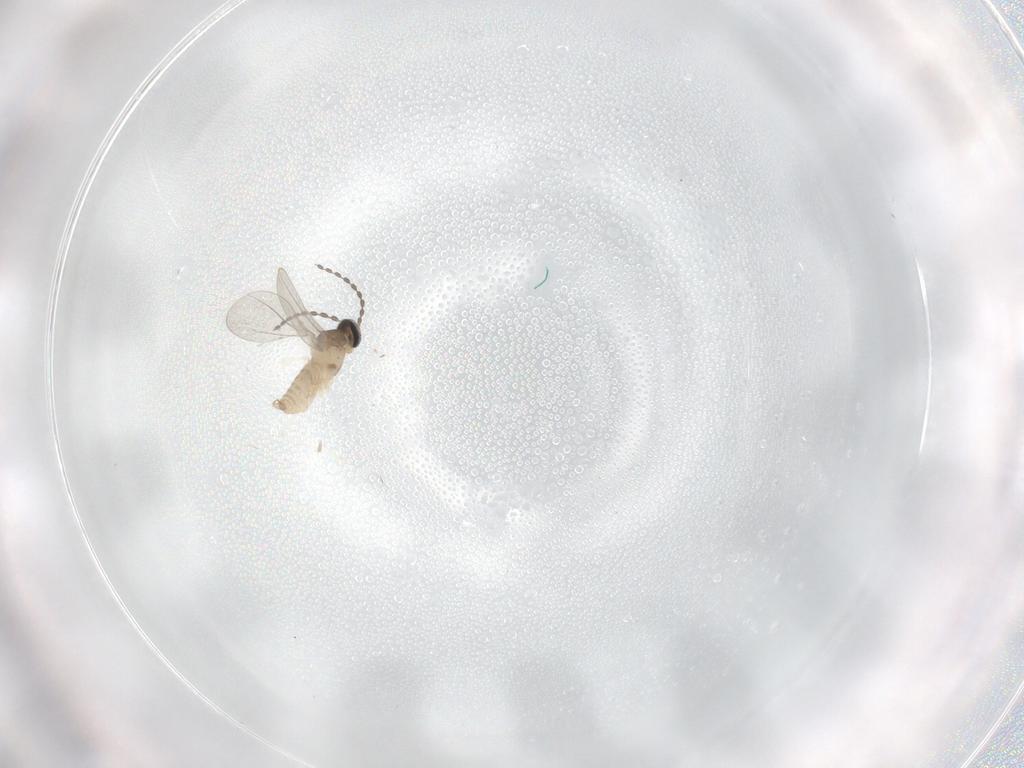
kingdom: Animalia
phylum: Arthropoda
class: Insecta
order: Diptera
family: Cecidomyiidae
